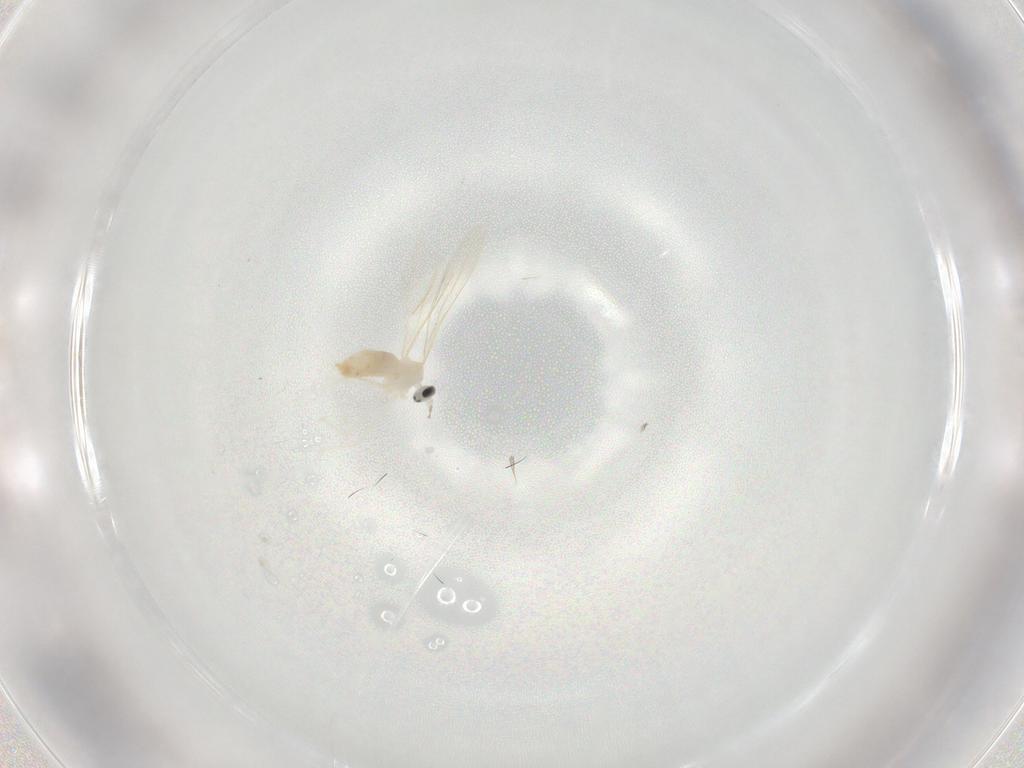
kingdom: Animalia
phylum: Arthropoda
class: Insecta
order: Diptera
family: Cecidomyiidae
